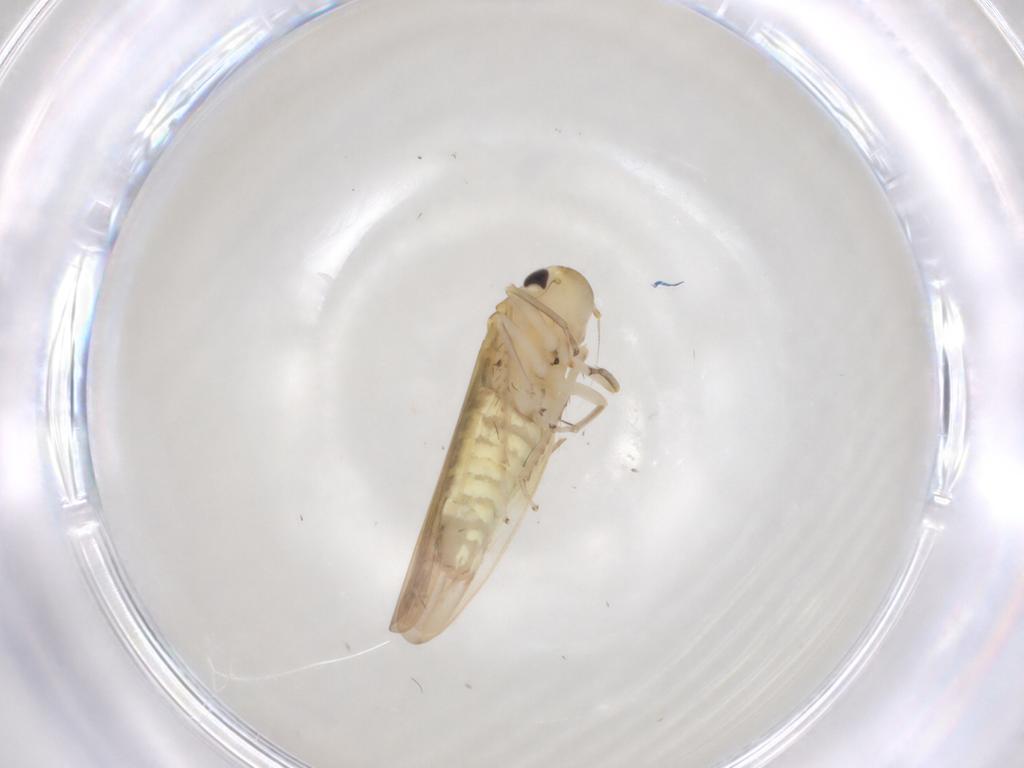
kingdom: Animalia
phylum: Arthropoda
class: Insecta
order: Hemiptera
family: Cicadellidae
